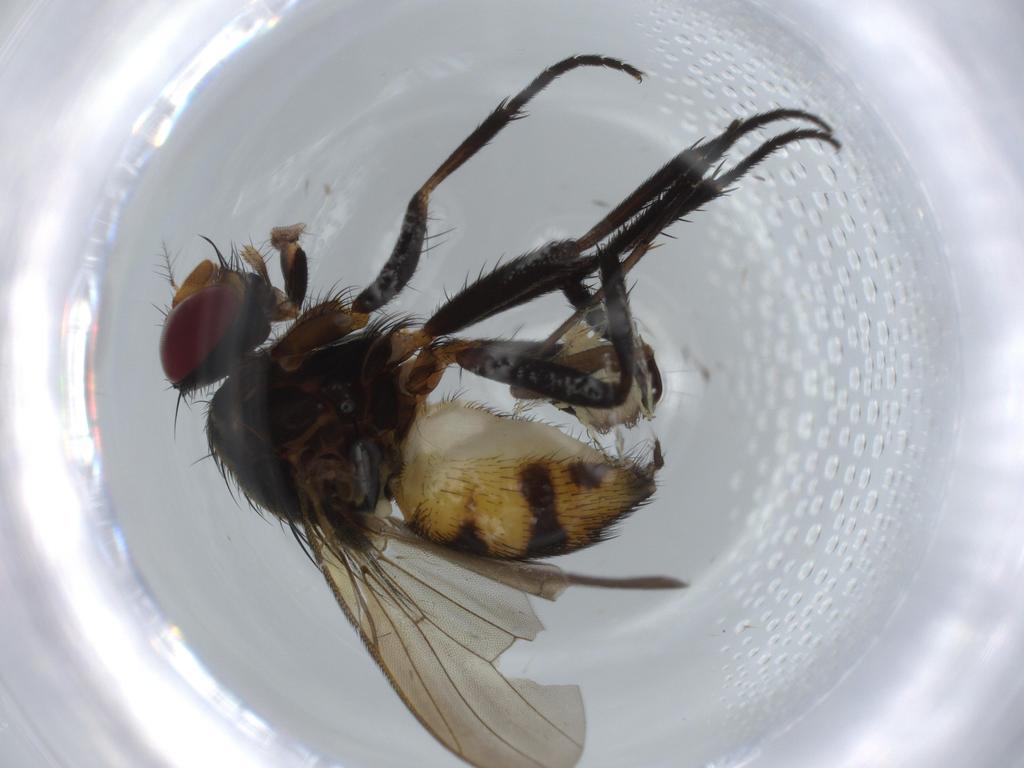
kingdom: Animalia
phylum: Arthropoda
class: Insecta
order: Diptera
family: Anthomyiidae
